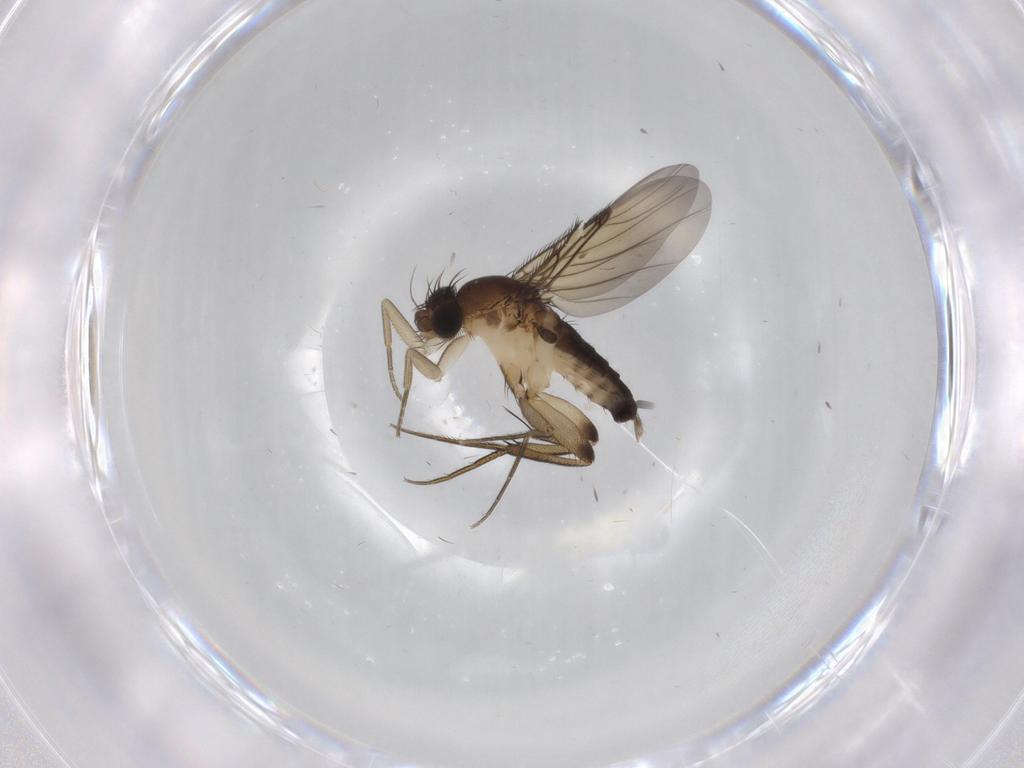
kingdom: Animalia
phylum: Arthropoda
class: Insecta
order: Diptera
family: Cecidomyiidae
